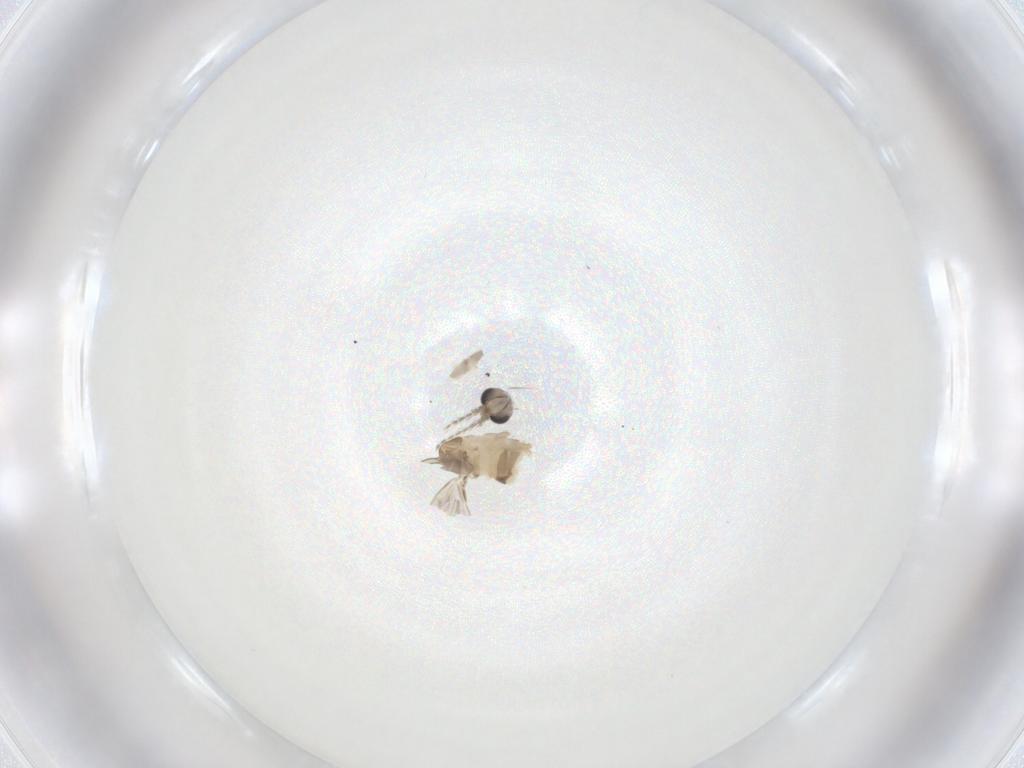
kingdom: Animalia
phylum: Arthropoda
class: Insecta
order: Diptera
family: Psychodidae
